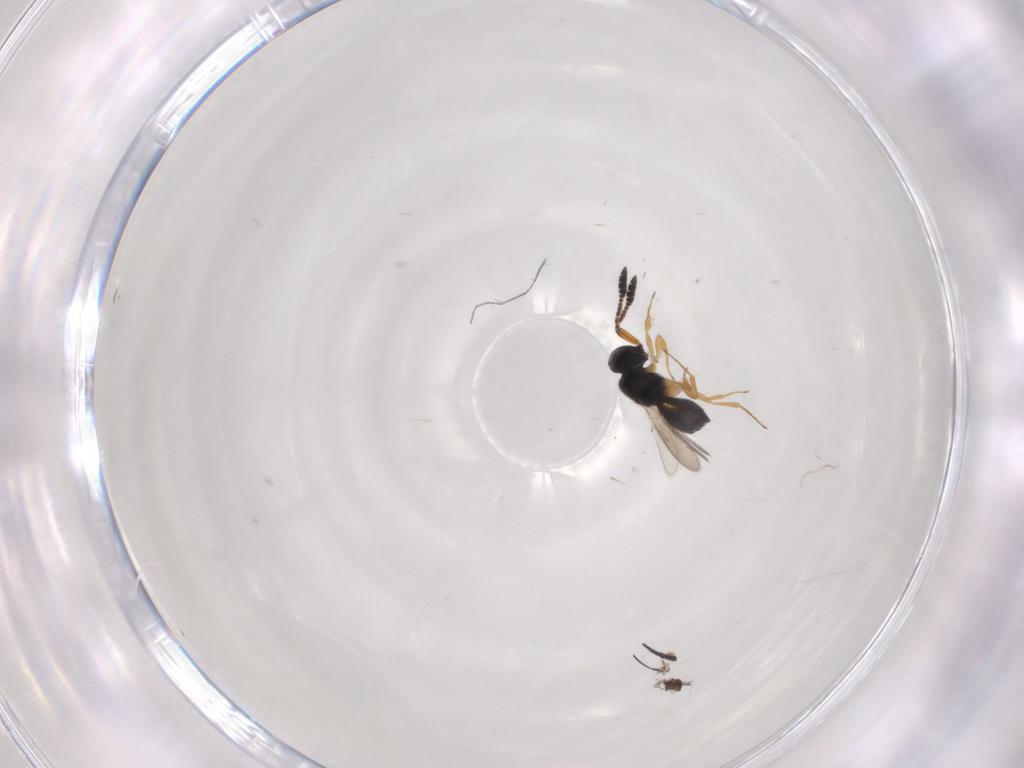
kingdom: Animalia
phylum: Arthropoda
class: Insecta
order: Hymenoptera
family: Scelionidae
